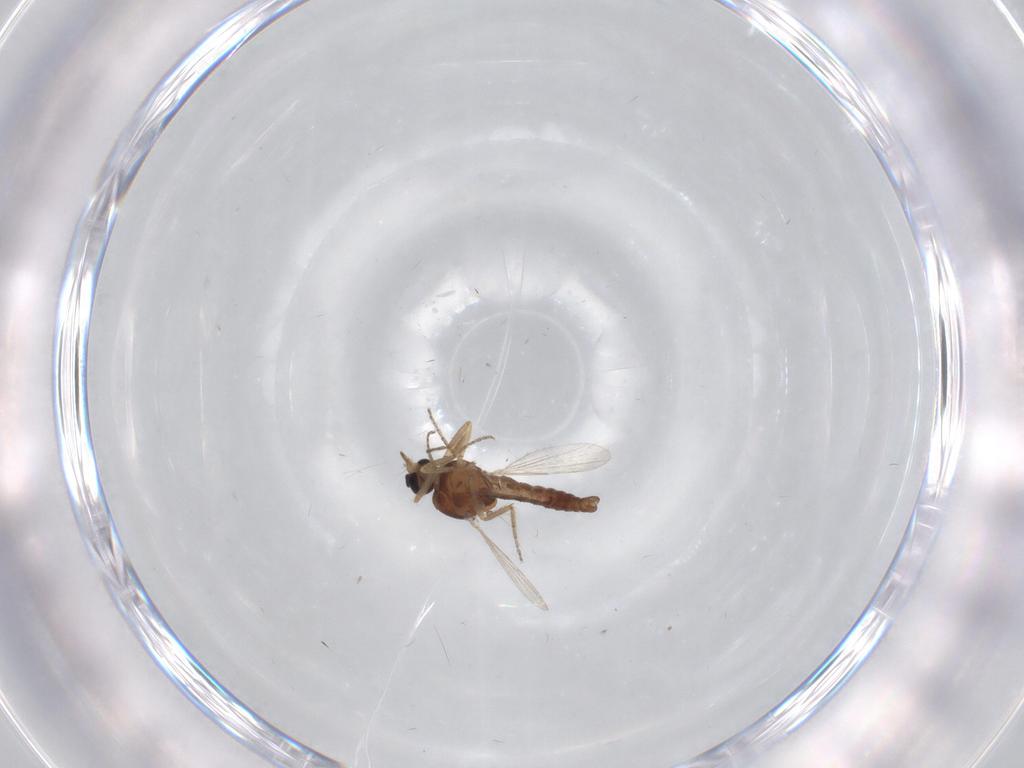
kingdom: Animalia
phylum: Arthropoda
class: Insecta
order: Diptera
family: Ceratopogonidae
